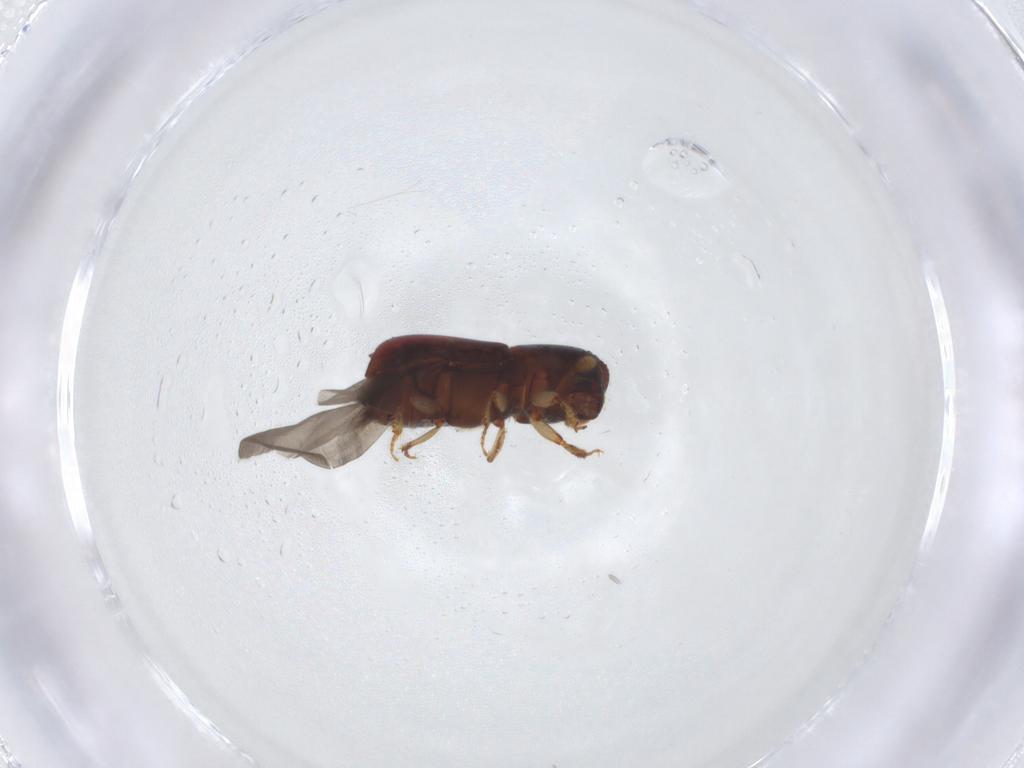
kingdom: Animalia
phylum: Arthropoda
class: Insecta
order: Coleoptera
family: Curculionidae
